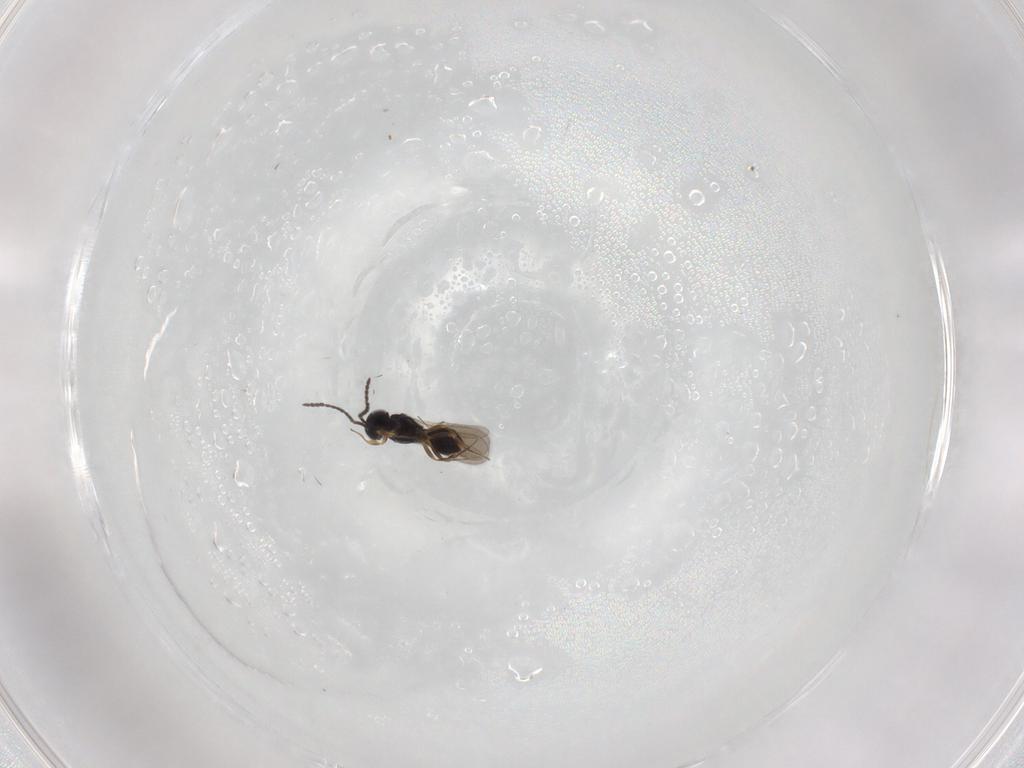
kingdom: Animalia
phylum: Arthropoda
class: Insecta
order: Hymenoptera
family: Scelionidae
